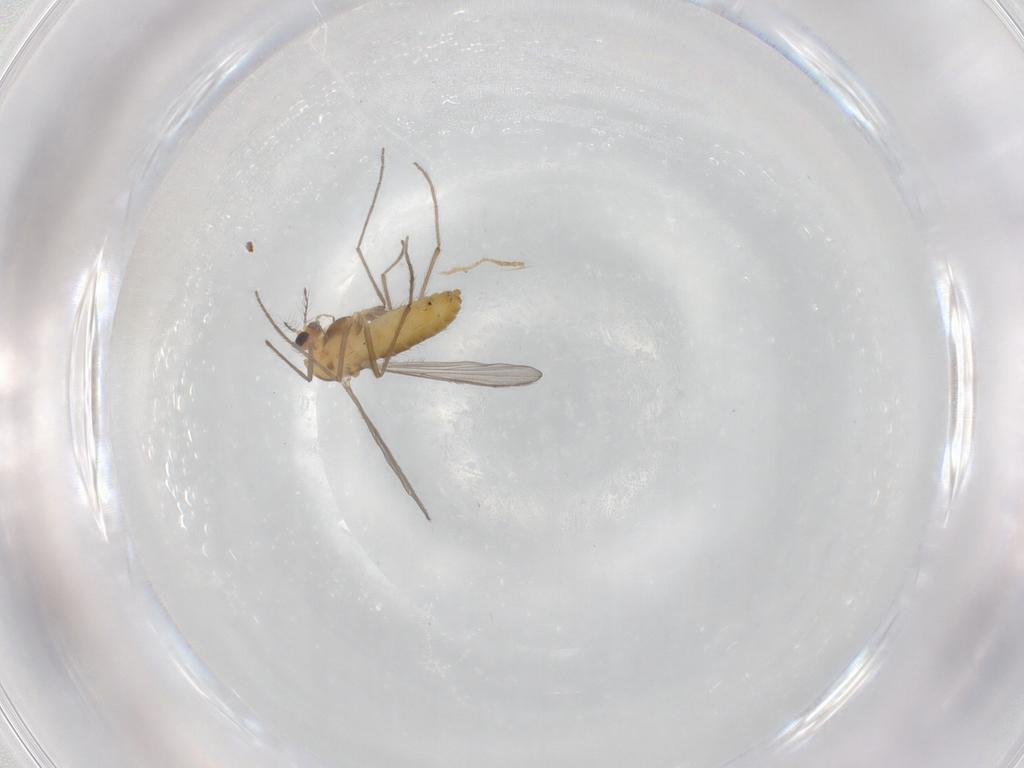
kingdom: Animalia
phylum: Arthropoda
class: Insecta
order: Diptera
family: Chironomidae
